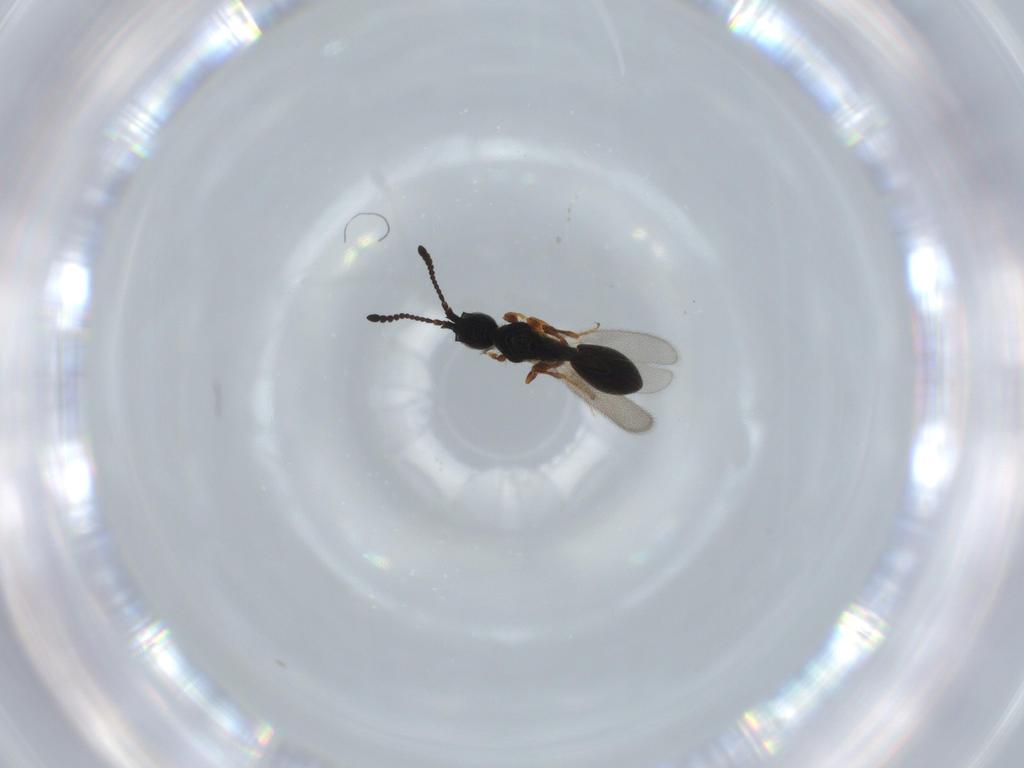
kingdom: Animalia
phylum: Arthropoda
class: Insecta
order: Hymenoptera
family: Diapriidae
